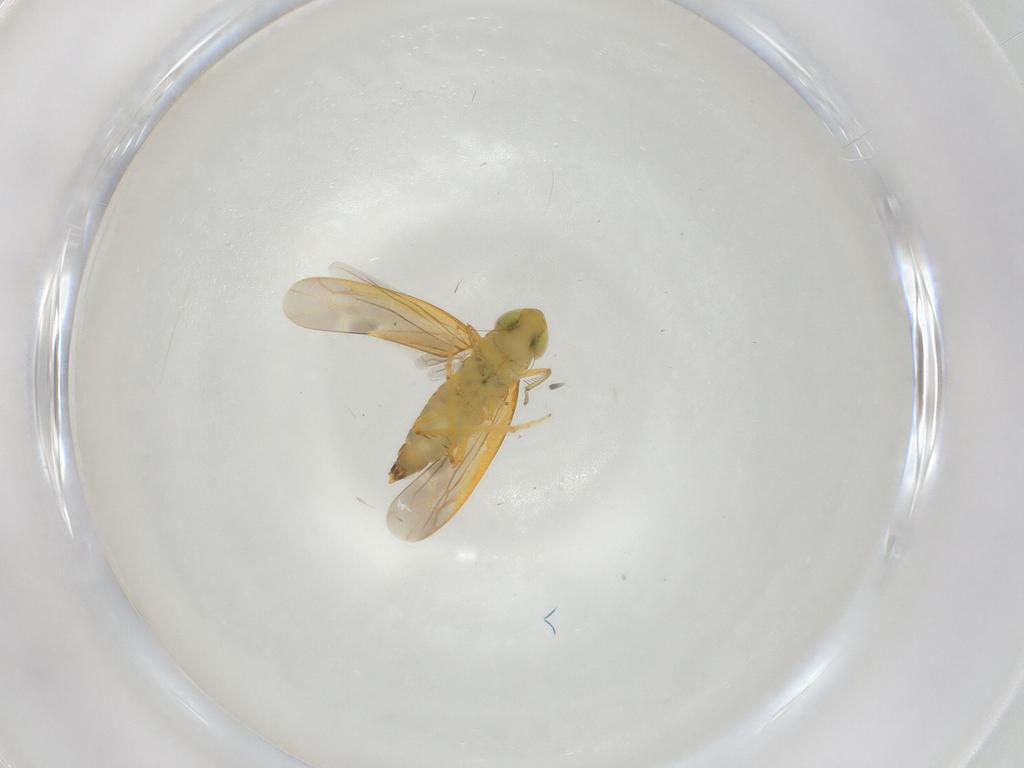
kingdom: Animalia
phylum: Arthropoda
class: Insecta
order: Hemiptera
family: Cicadellidae
